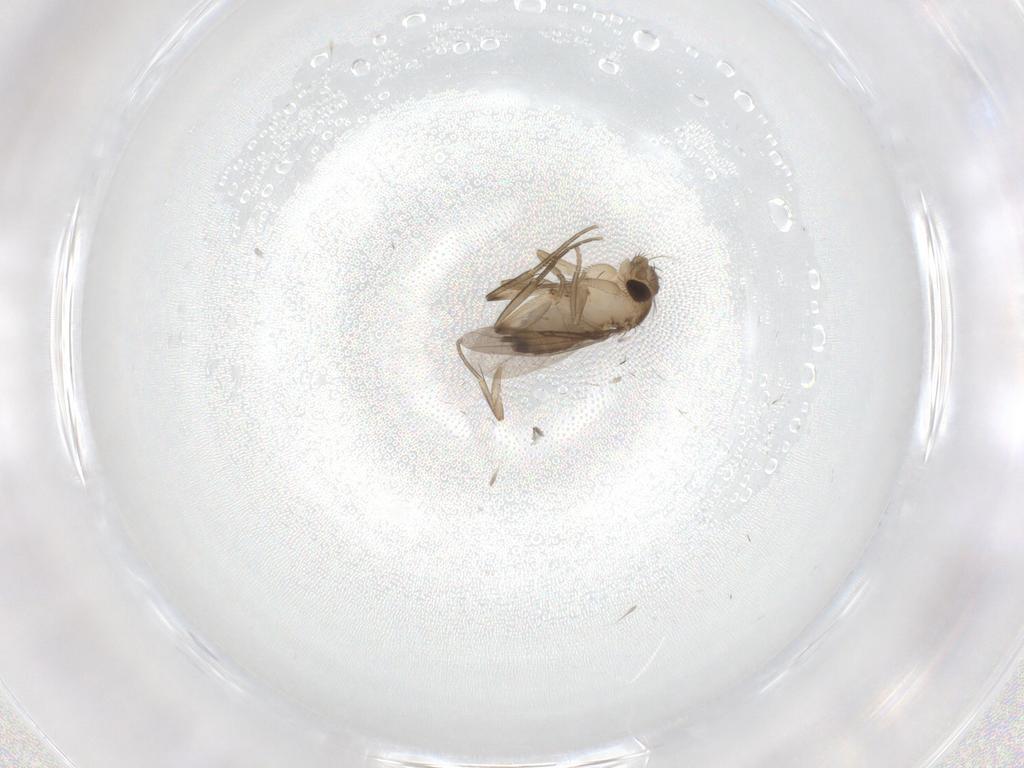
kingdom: Animalia
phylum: Arthropoda
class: Insecta
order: Diptera
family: Phoridae
